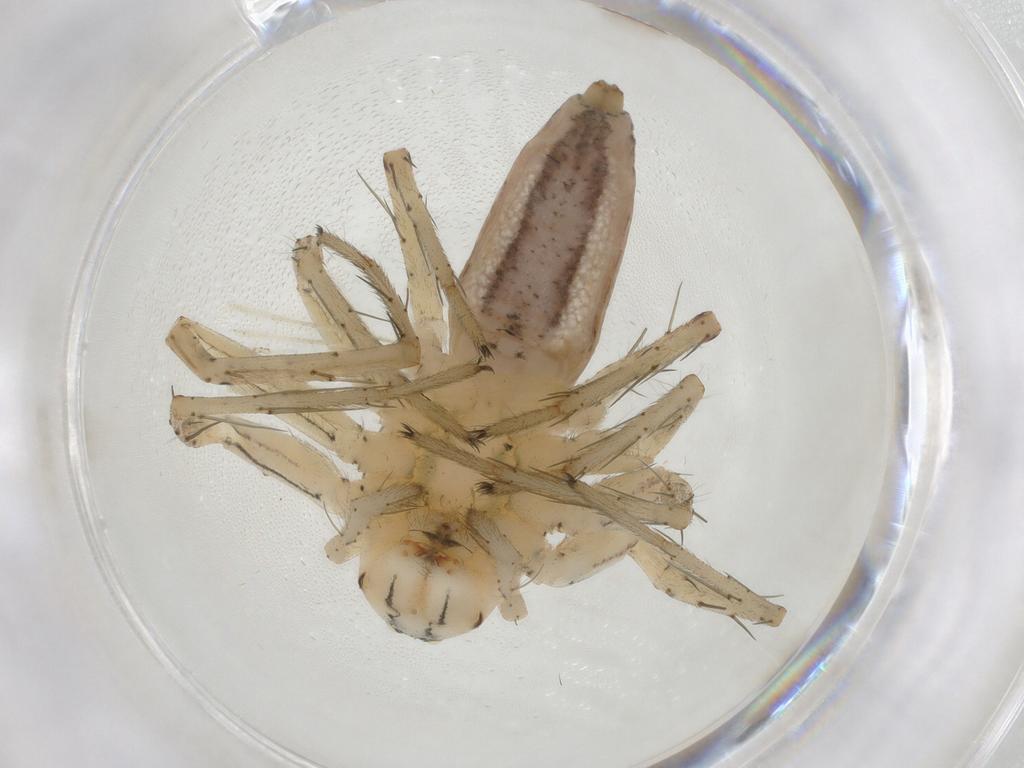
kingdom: Animalia
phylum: Arthropoda
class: Arachnida
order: Araneae
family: Oxyopidae
